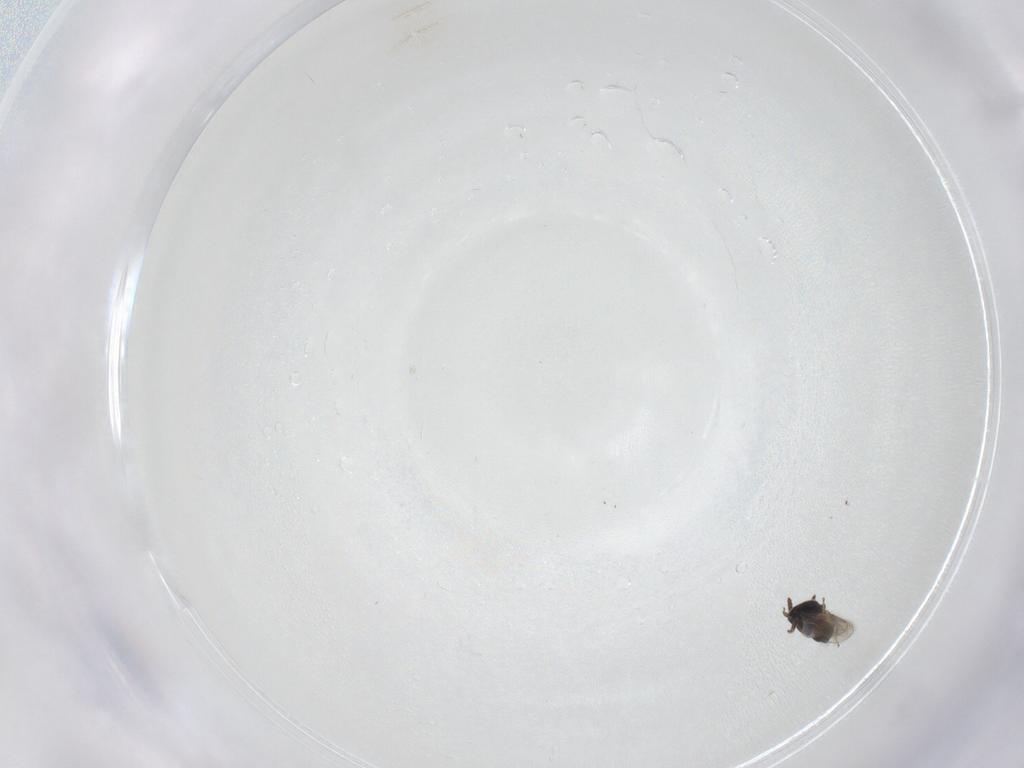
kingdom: Animalia
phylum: Arthropoda
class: Insecta
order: Hymenoptera
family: Scelionidae
